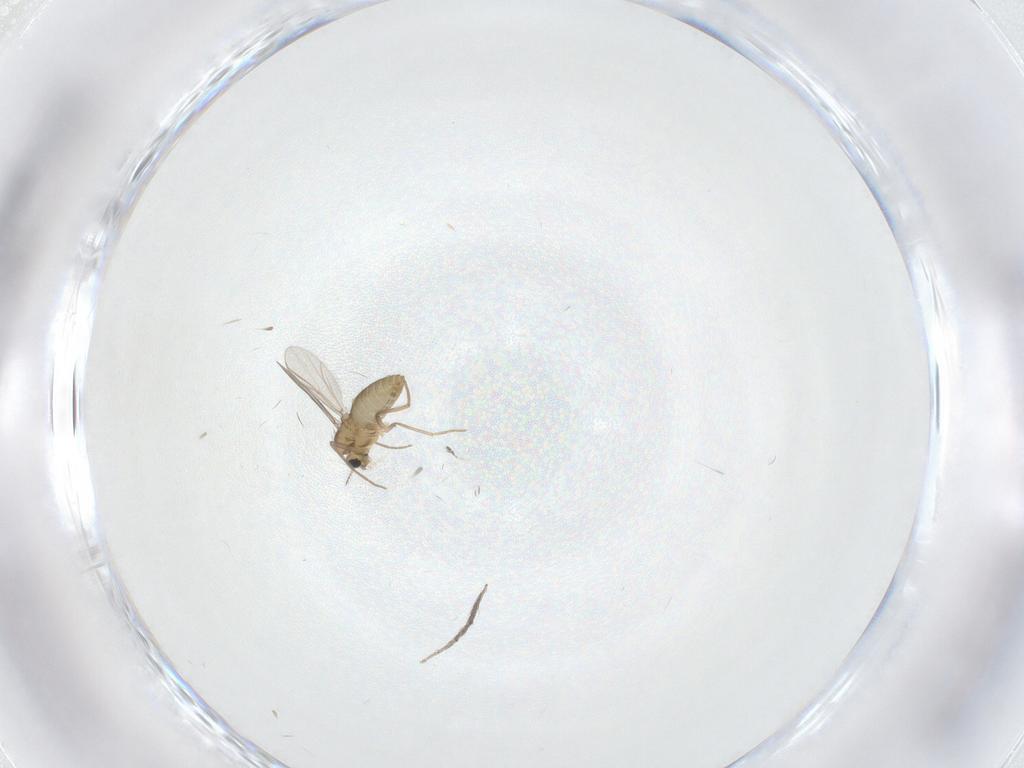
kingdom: Animalia
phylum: Arthropoda
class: Insecta
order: Diptera
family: Chironomidae
